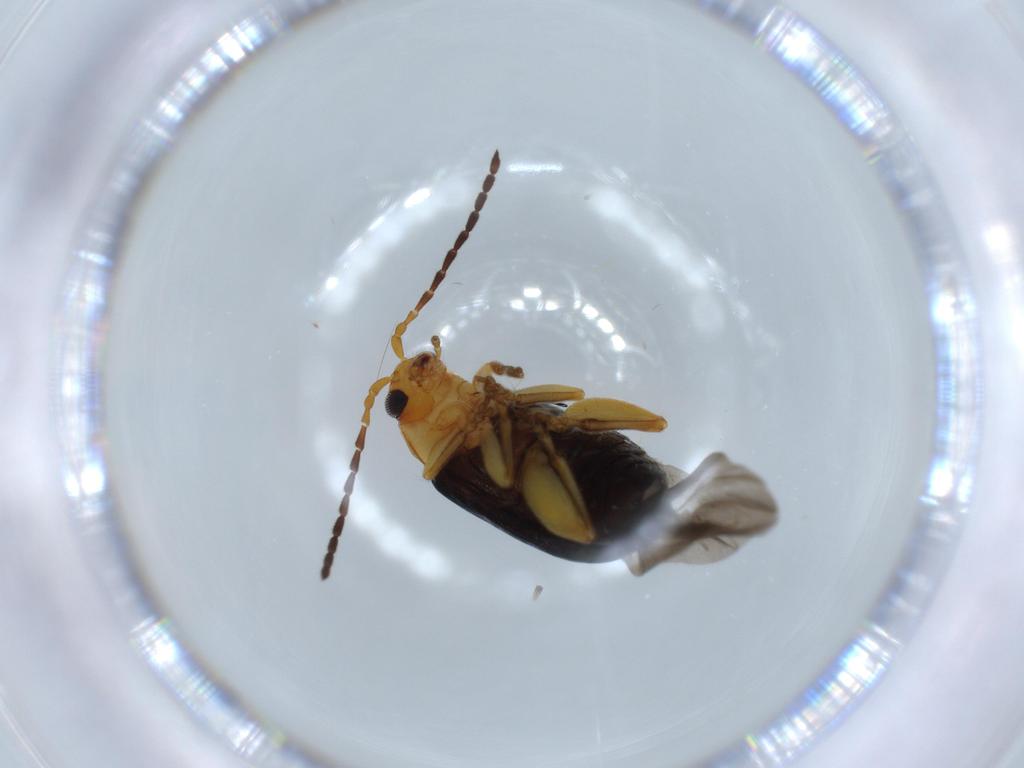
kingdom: Animalia
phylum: Arthropoda
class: Insecta
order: Coleoptera
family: Chrysomelidae
